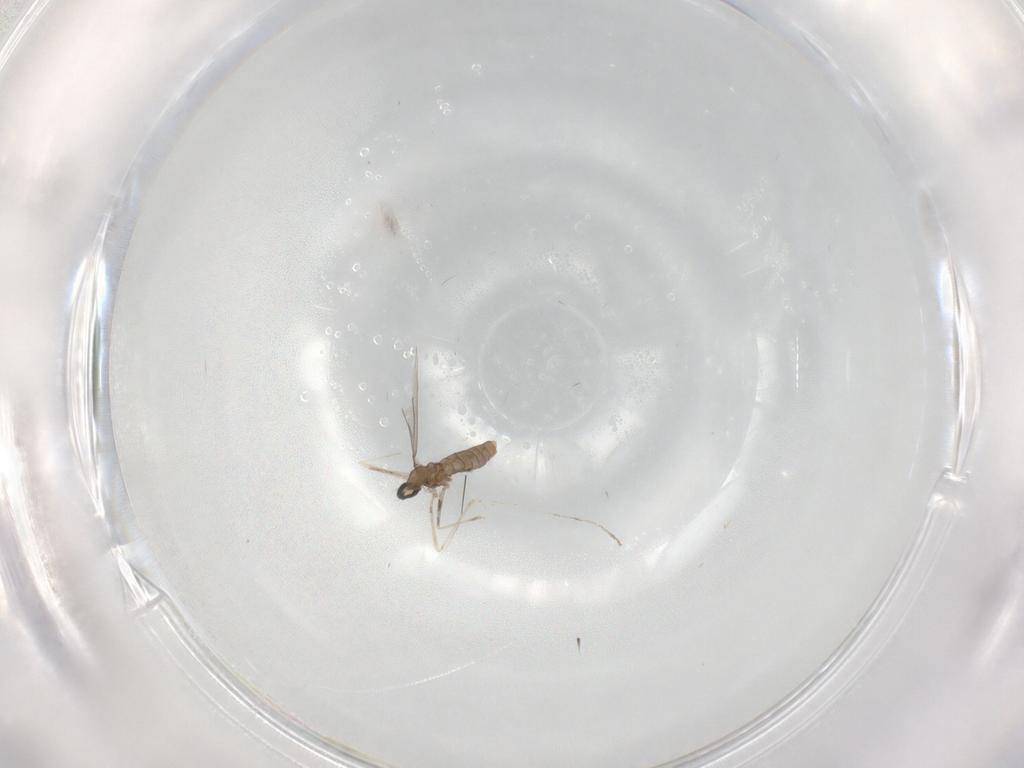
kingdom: Animalia
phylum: Arthropoda
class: Insecta
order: Diptera
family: Cecidomyiidae
